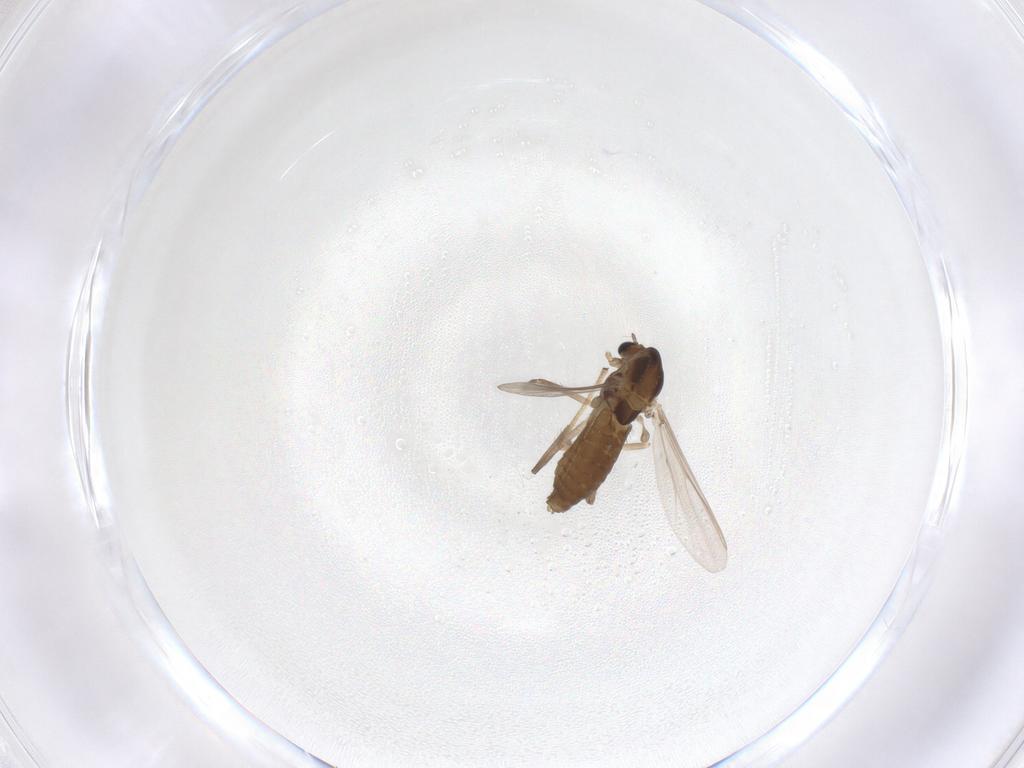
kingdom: Animalia
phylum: Arthropoda
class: Insecta
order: Diptera
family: Chironomidae
